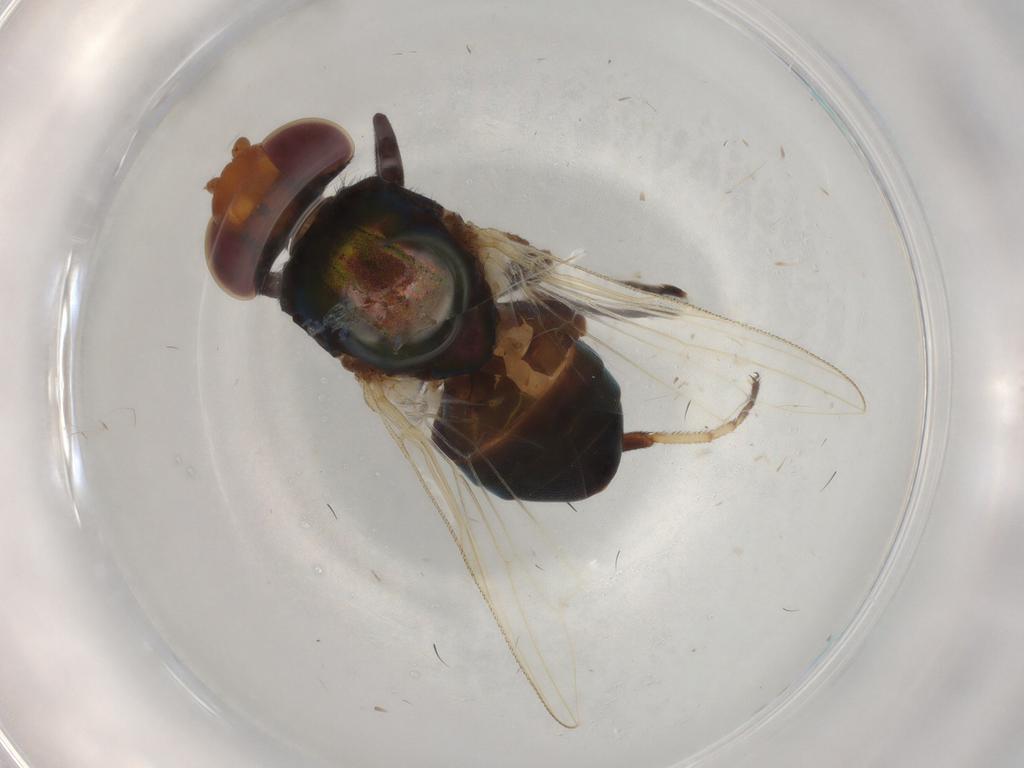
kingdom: Animalia
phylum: Arthropoda
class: Insecta
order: Diptera
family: Ulidiidae
